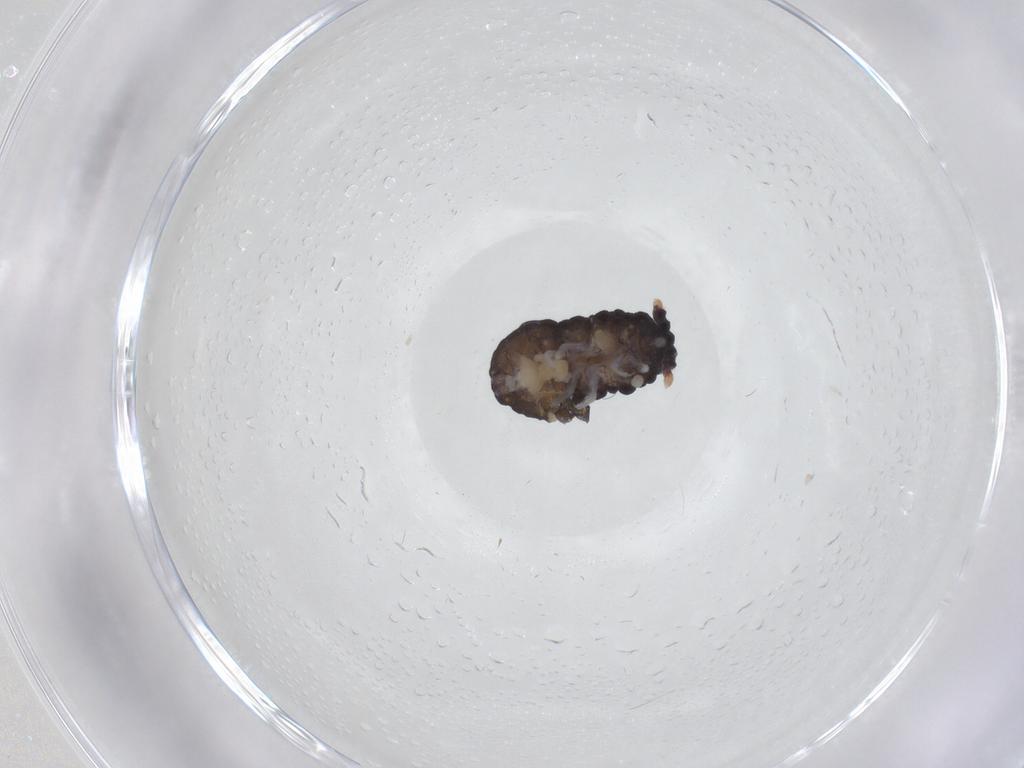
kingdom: Animalia
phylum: Arthropoda
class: Collembola
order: Poduromorpha
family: Neanuridae
